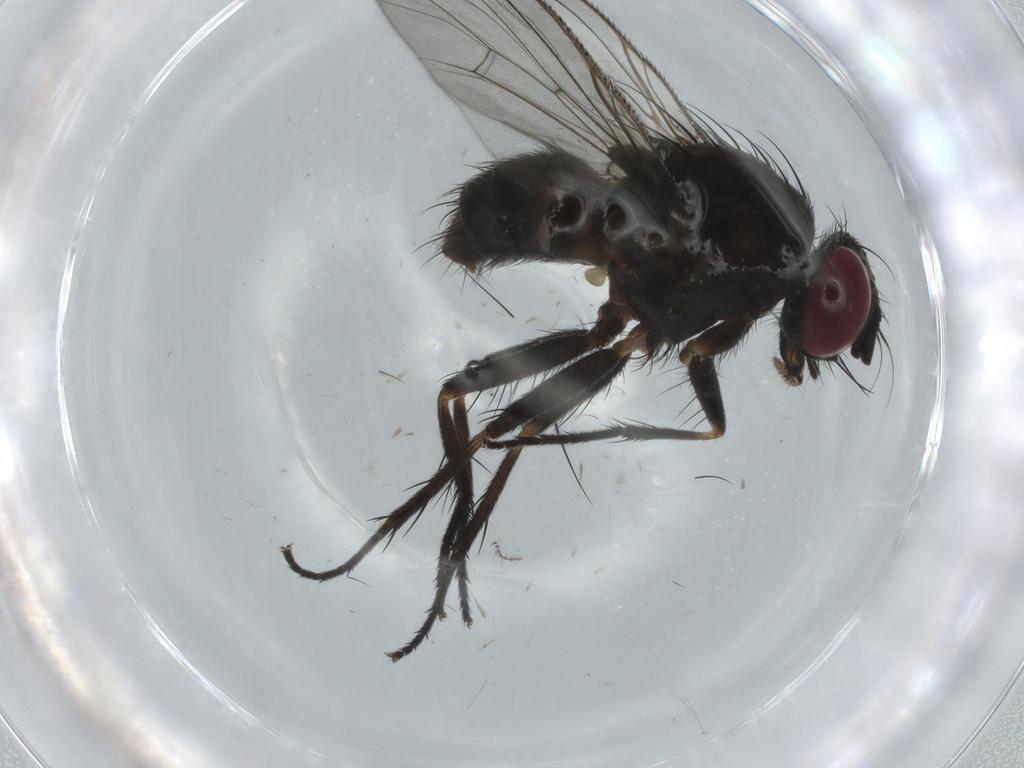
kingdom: Animalia
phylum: Arthropoda
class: Insecta
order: Diptera
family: Muscidae
